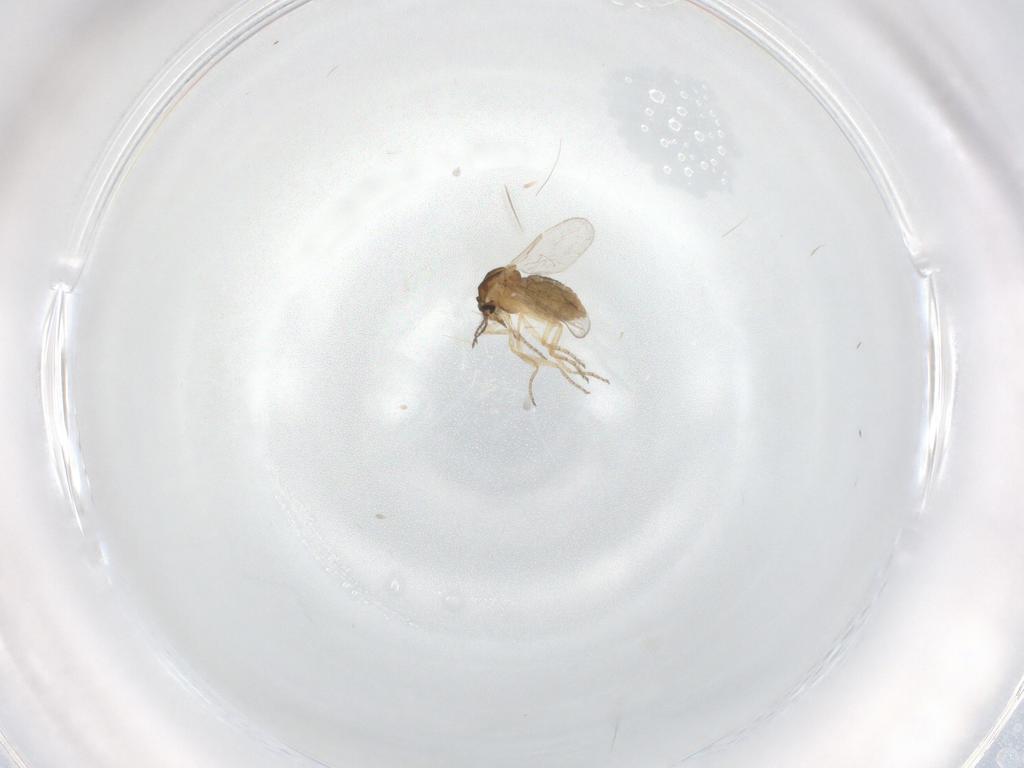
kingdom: Animalia
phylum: Arthropoda
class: Insecta
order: Diptera
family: Ceratopogonidae
